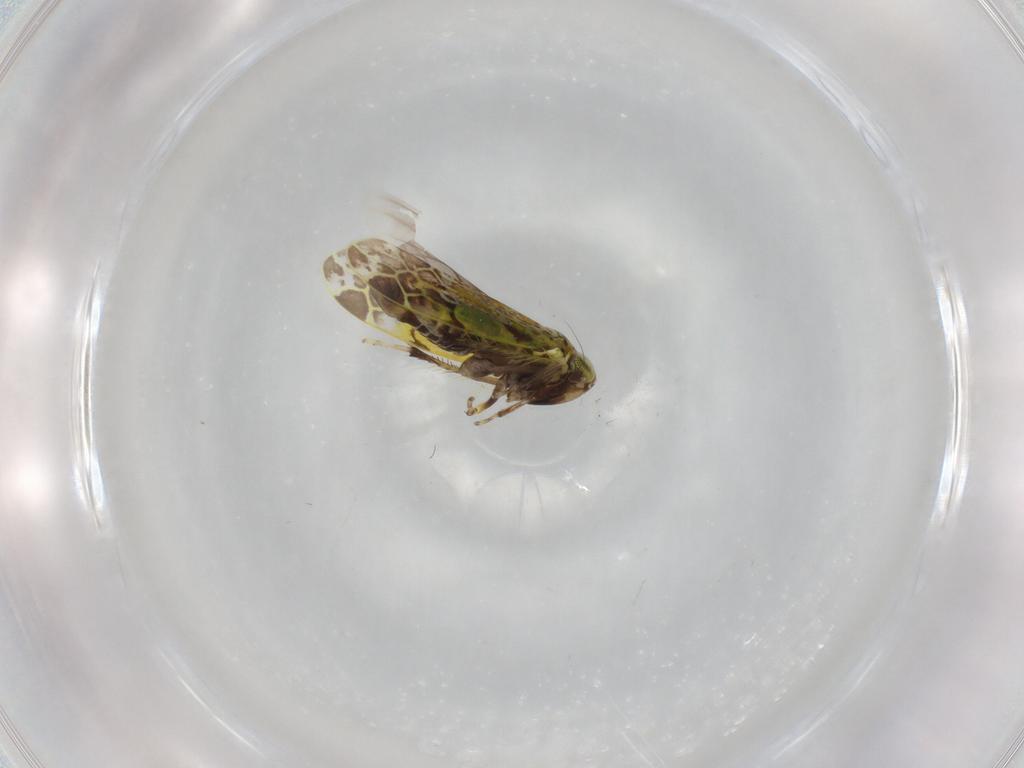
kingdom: Animalia
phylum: Arthropoda
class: Insecta
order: Hemiptera
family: Cicadellidae
